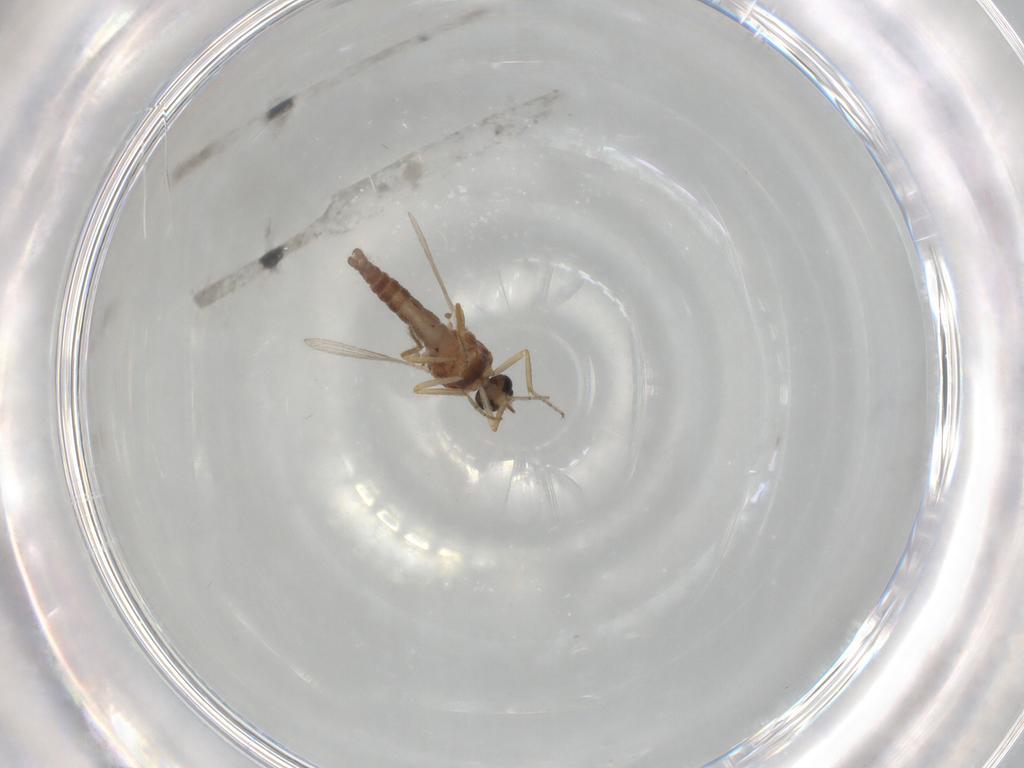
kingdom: Animalia
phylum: Arthropoda
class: Insecta
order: Diptera
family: Ceratopogonidae
